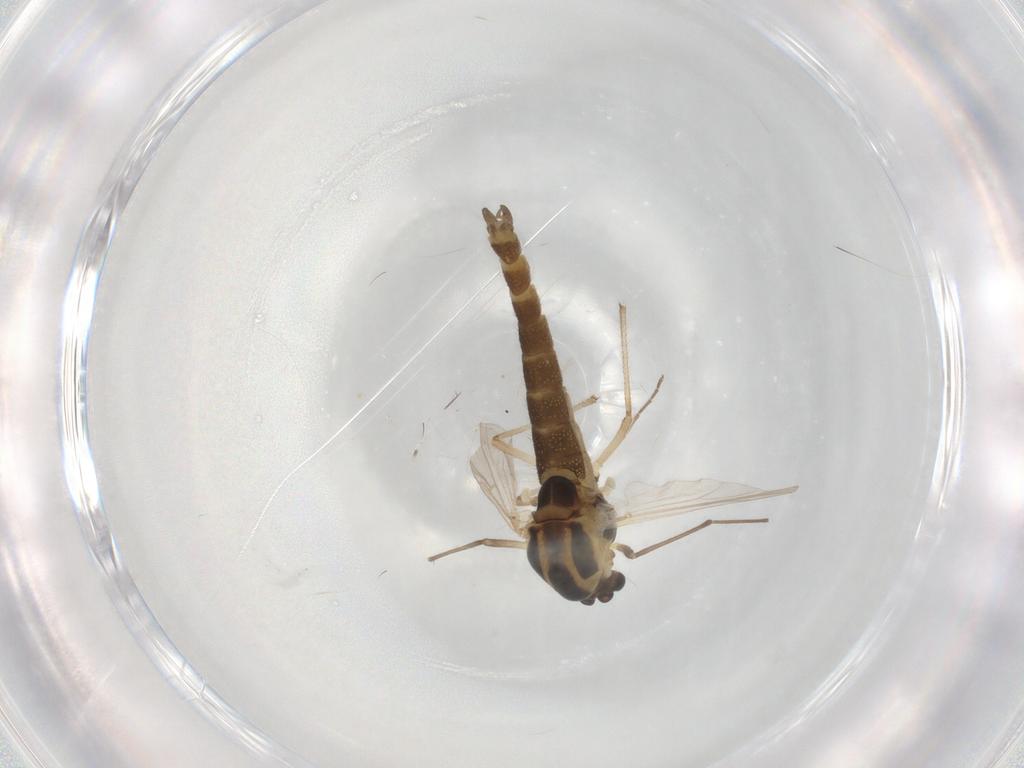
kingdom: Animalia
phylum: Arthropoda
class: Insecta
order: Diptera
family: Chironomidae
